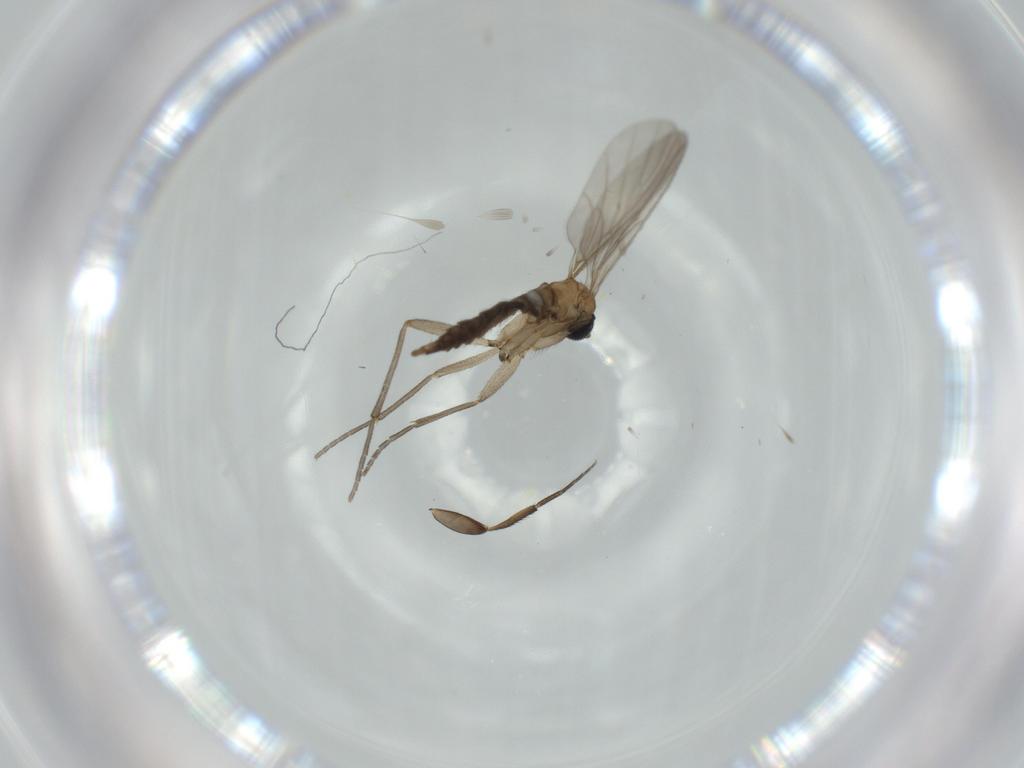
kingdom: Animalia
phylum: Arthropoda
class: Insecta
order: Diptera
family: Sciaridae
